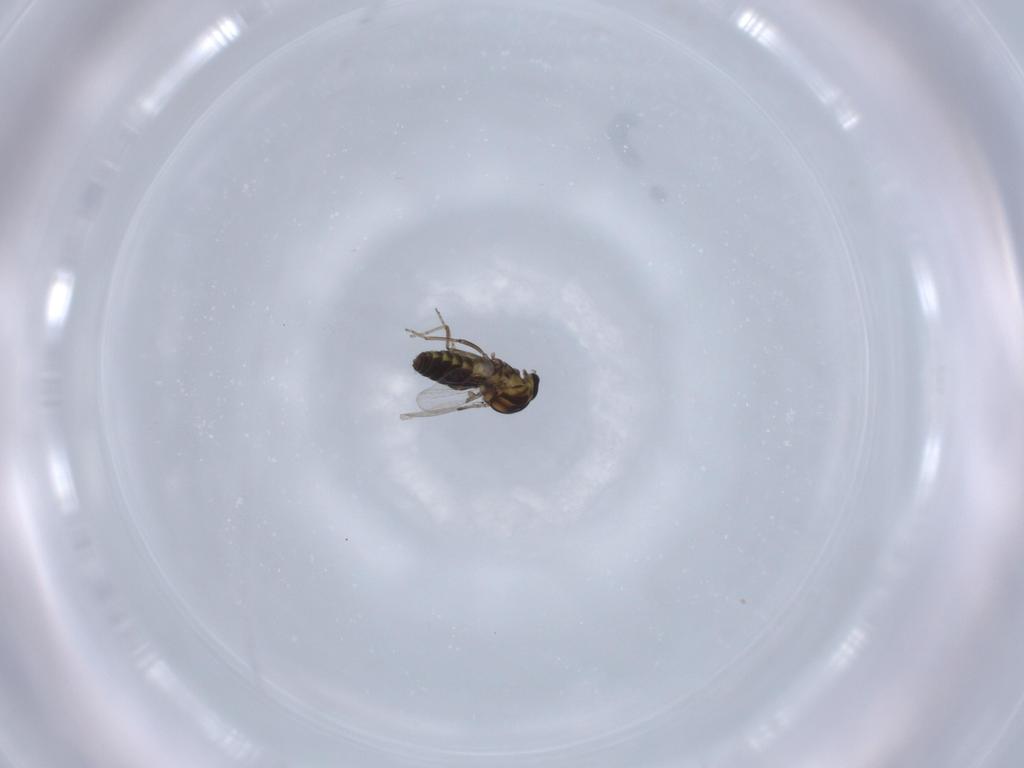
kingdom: Animalia
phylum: Arthropoda
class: Insecta
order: Diptera
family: Ceratopogonidae
